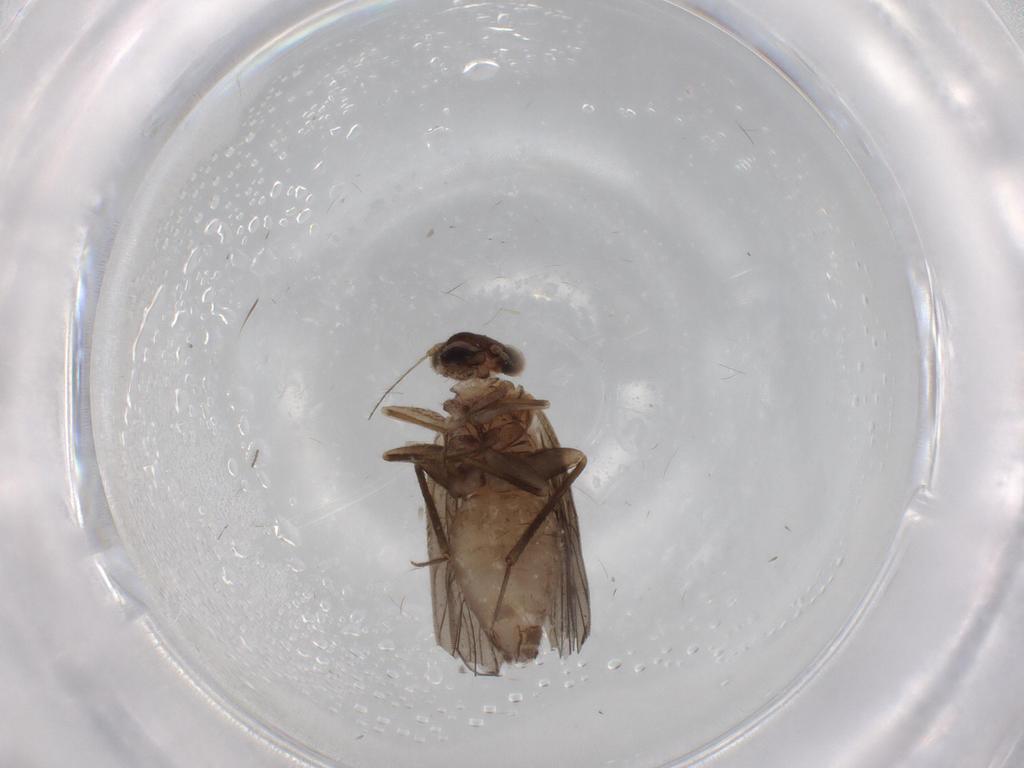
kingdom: Animalia
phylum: Arthropoda
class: Insecta
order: Psocodea
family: Lepidopsocidae
